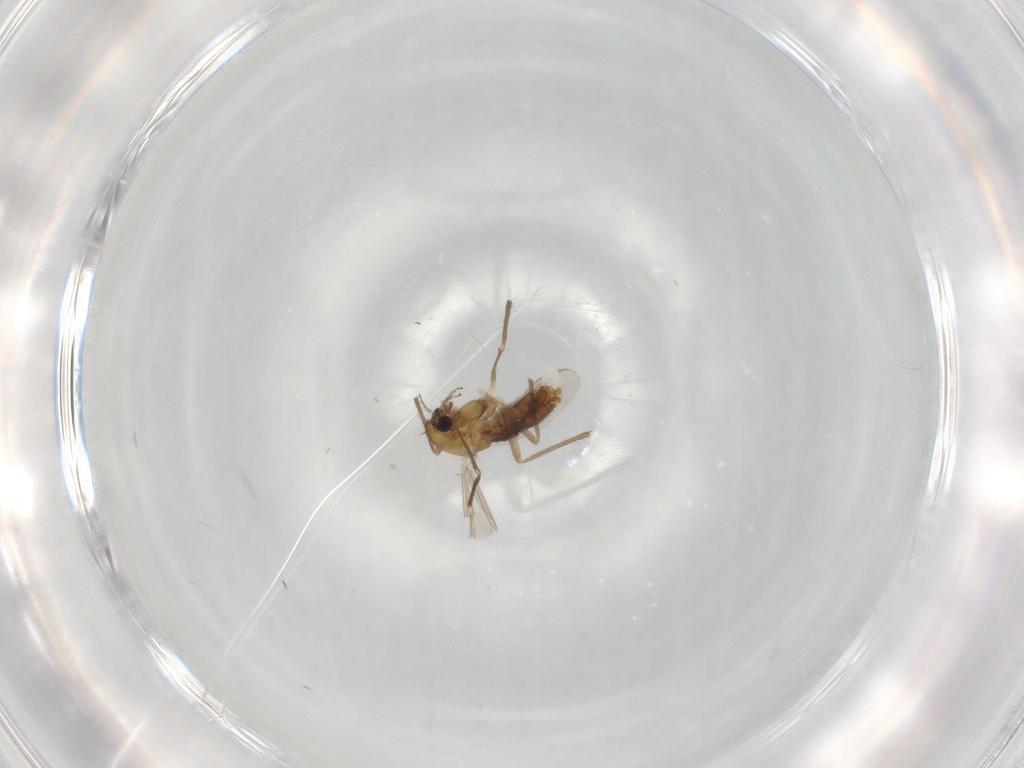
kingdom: Animalia
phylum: Arthropoda
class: Insecta
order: Diptera
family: Chironomidae
